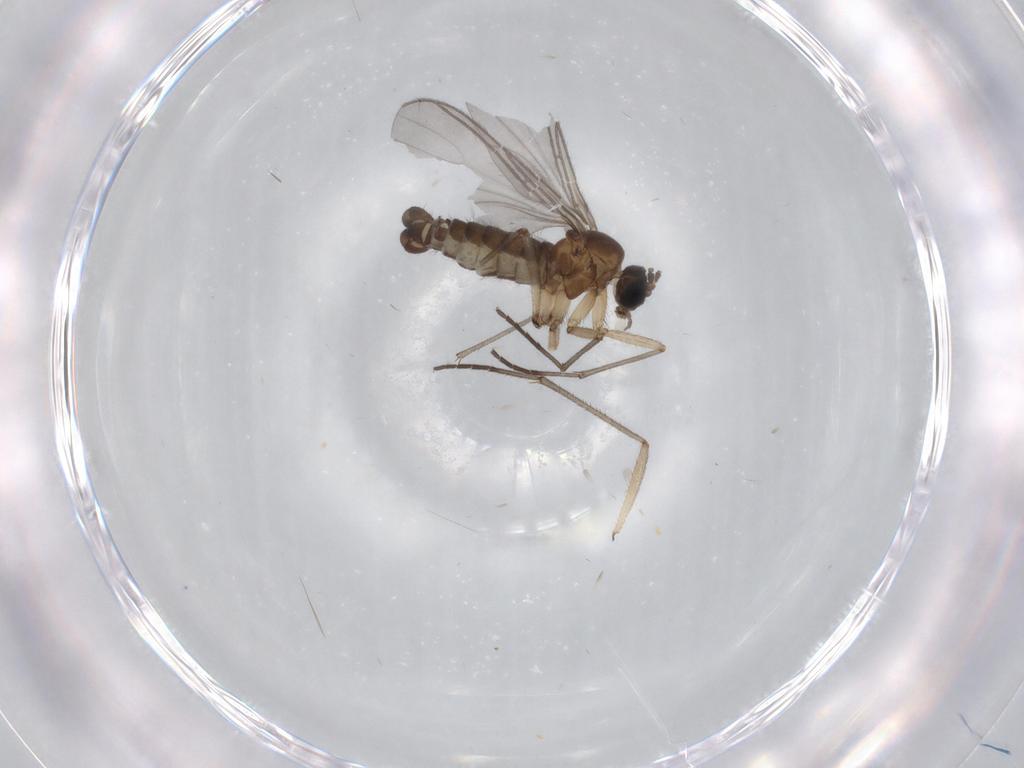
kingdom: Animalia
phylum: Arthropoda
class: Insecta
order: Diptera
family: Sciaridae
